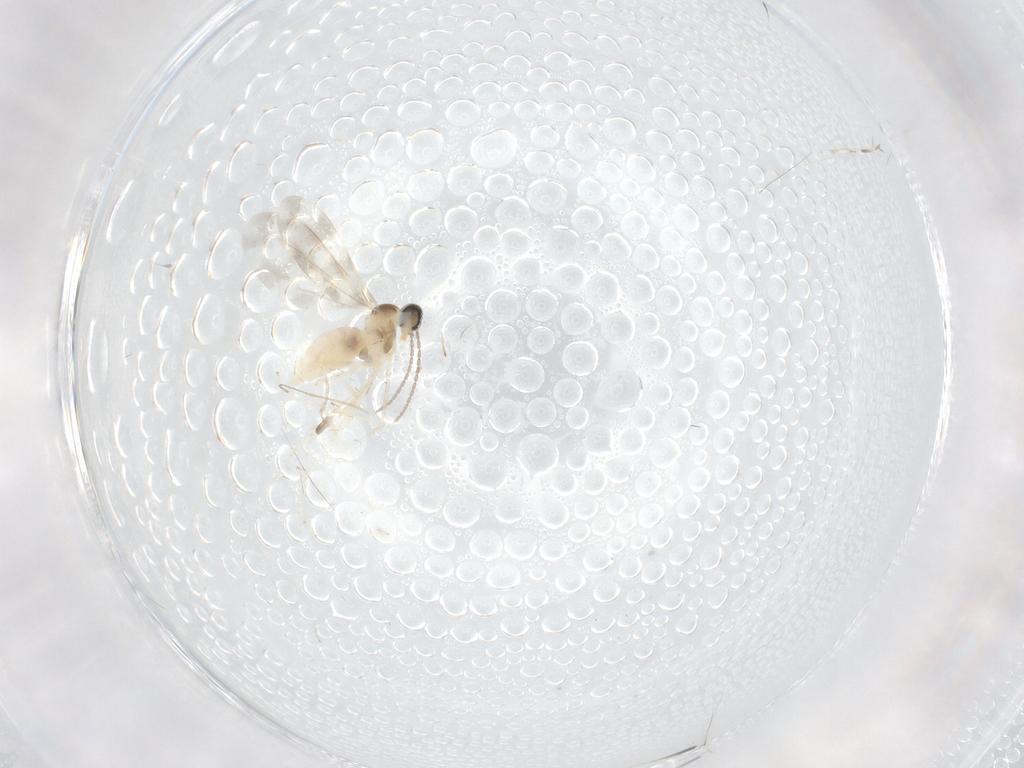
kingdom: Animalia
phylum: Arthropoda
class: Insecta
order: Diptera
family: Cecidomyiidae
